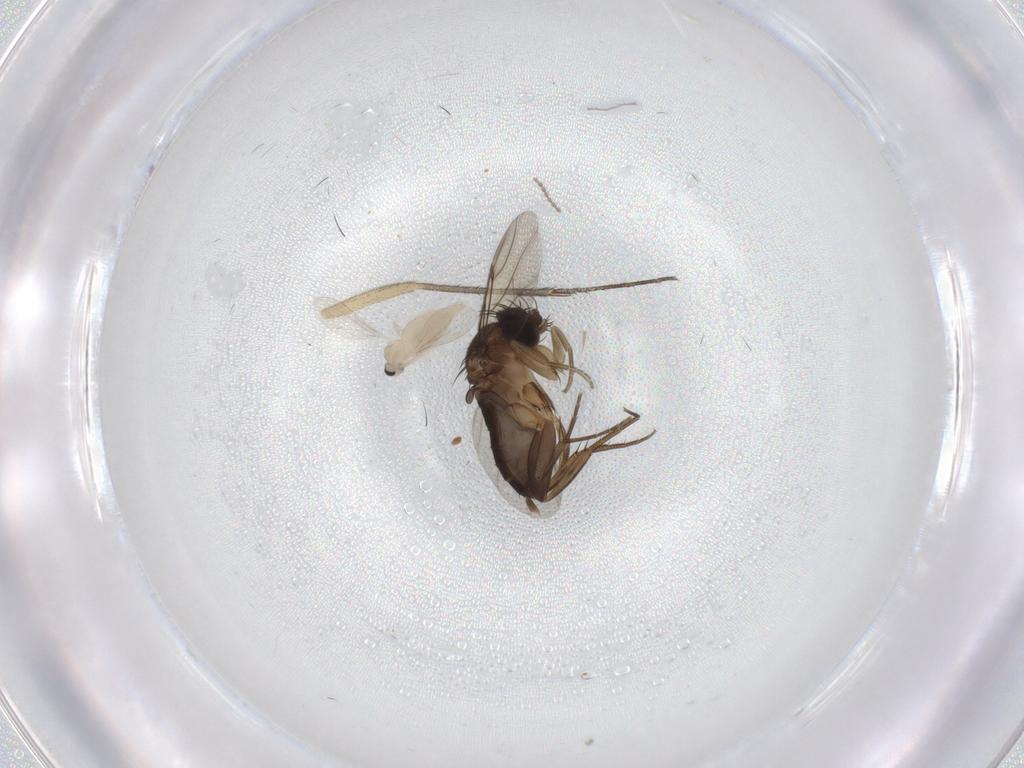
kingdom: Animalia
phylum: Arthropoda
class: Insecta
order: Diptera
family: Phoridae
